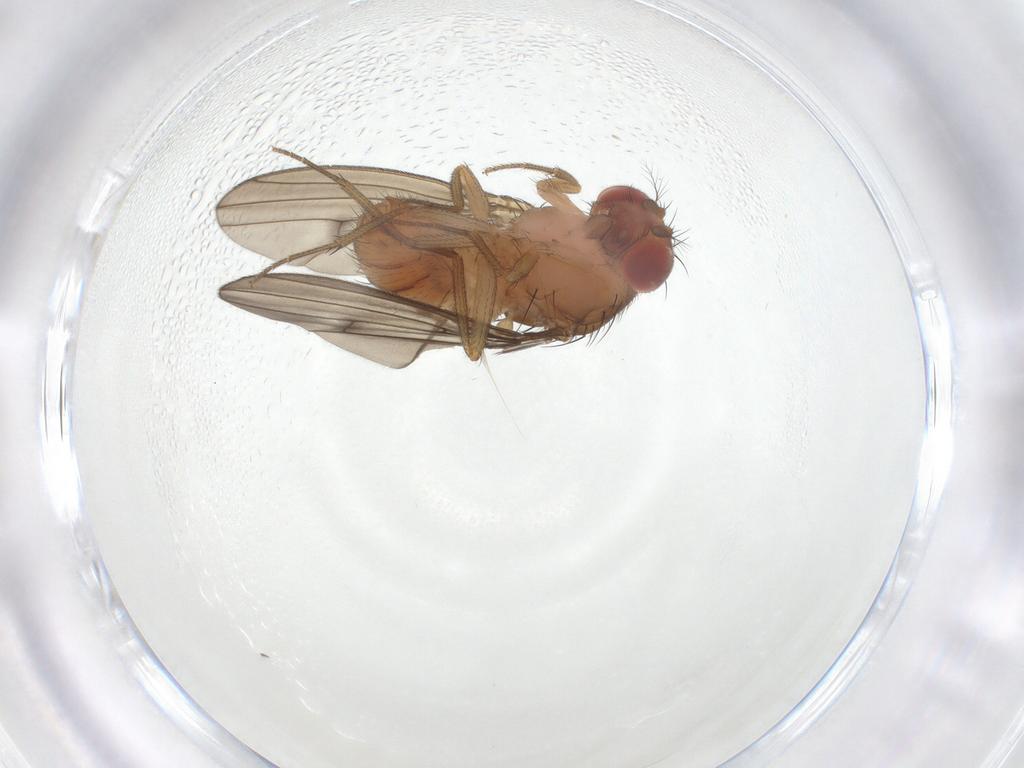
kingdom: Animalia
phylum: Arthropoda
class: Insecta
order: Diptera
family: Drosophilidae
